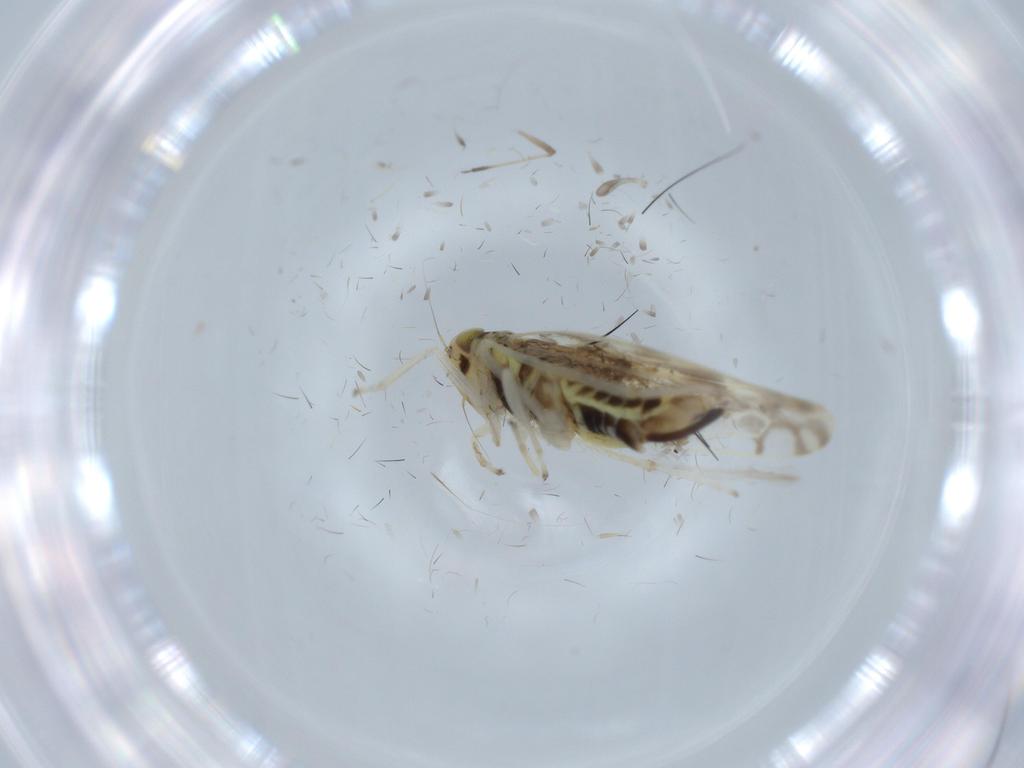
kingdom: Animalia
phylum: Arthropoda
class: Insecta
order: Hemiptera
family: Cicadellidae
